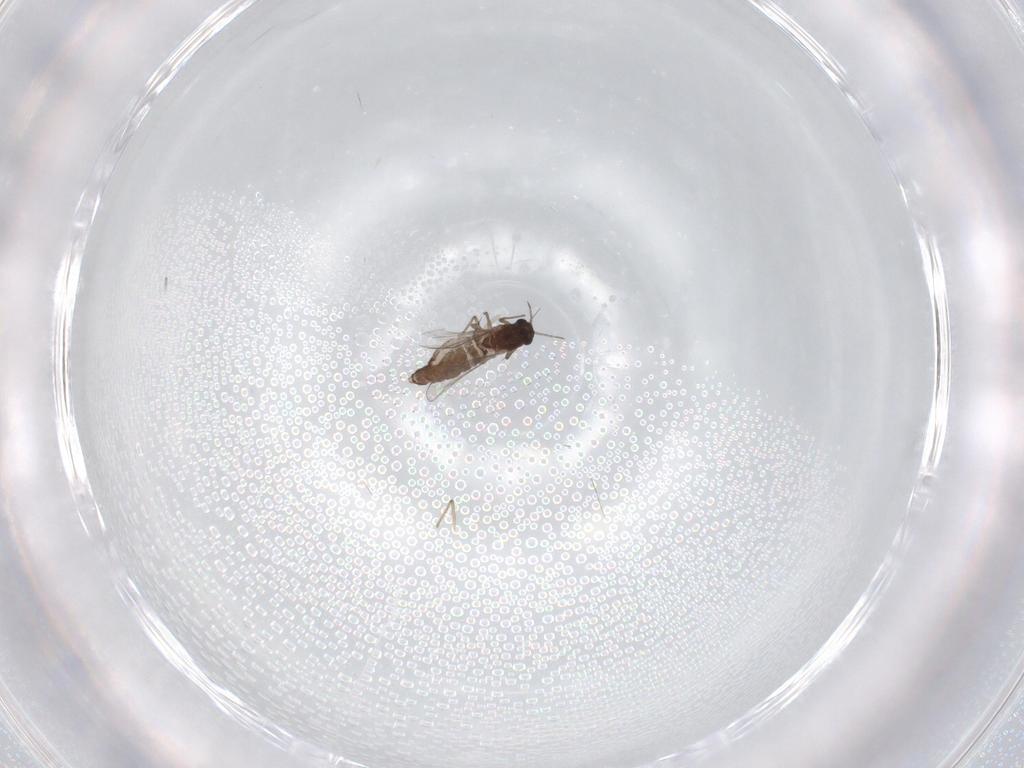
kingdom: Animalia
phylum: Arthropoda
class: Insecta
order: Diptera
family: Chironomidae
